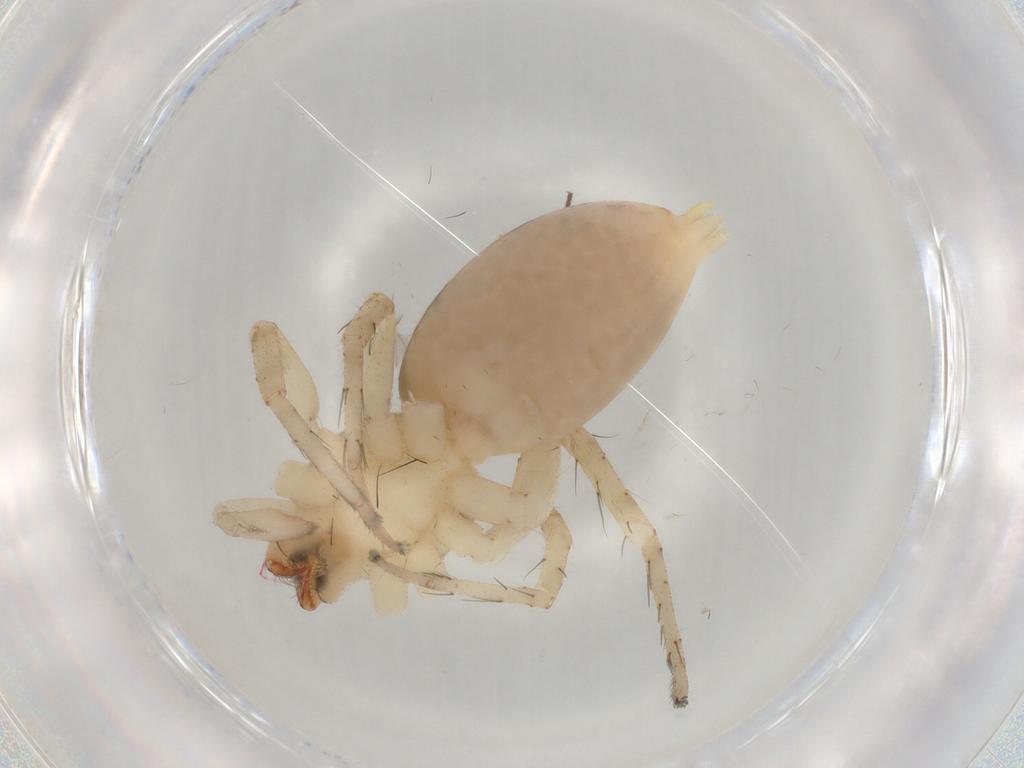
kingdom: Animalia
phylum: Arthropoda
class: Arachnida
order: Araneae
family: Anyphaenidae
